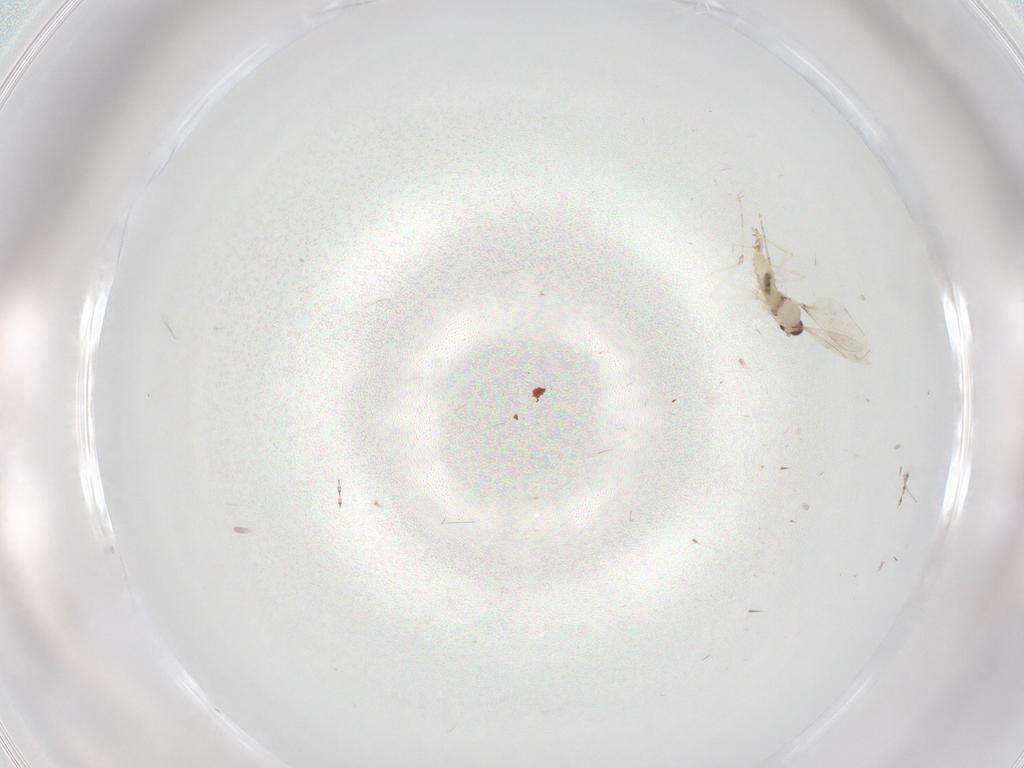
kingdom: Animalia
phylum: Arthropoda
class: Insecta
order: Diptera
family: Cecidomyiidae
